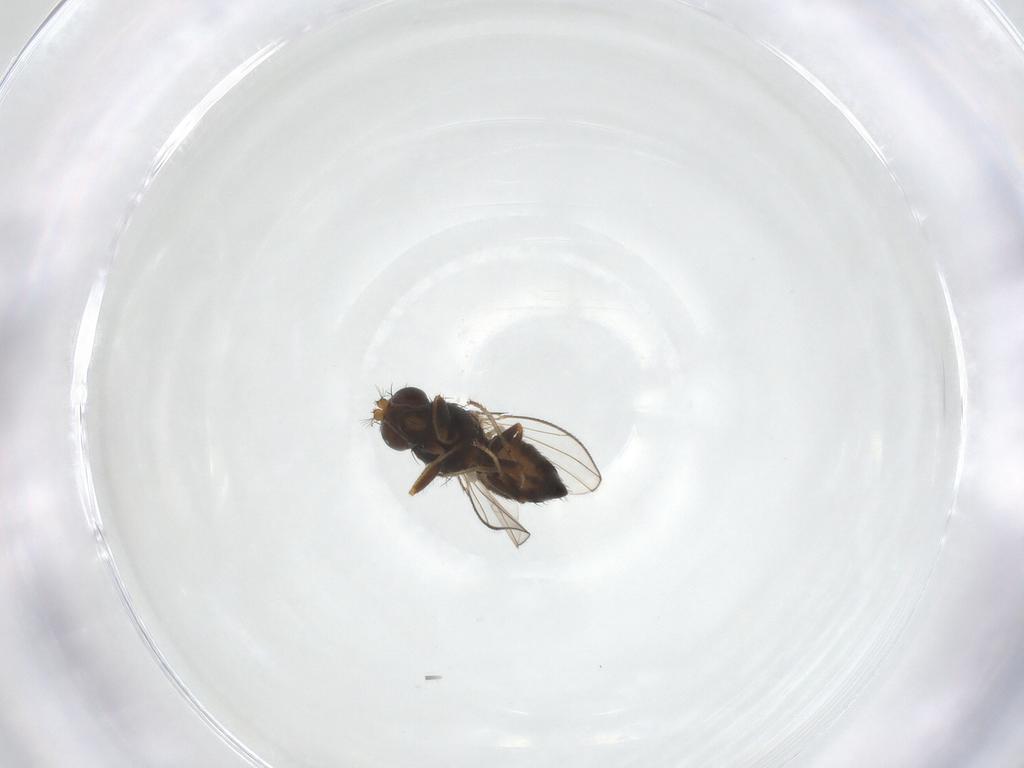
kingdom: Animalia
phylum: Arthropoda
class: Insecta
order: Diptera
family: Ephydridae
